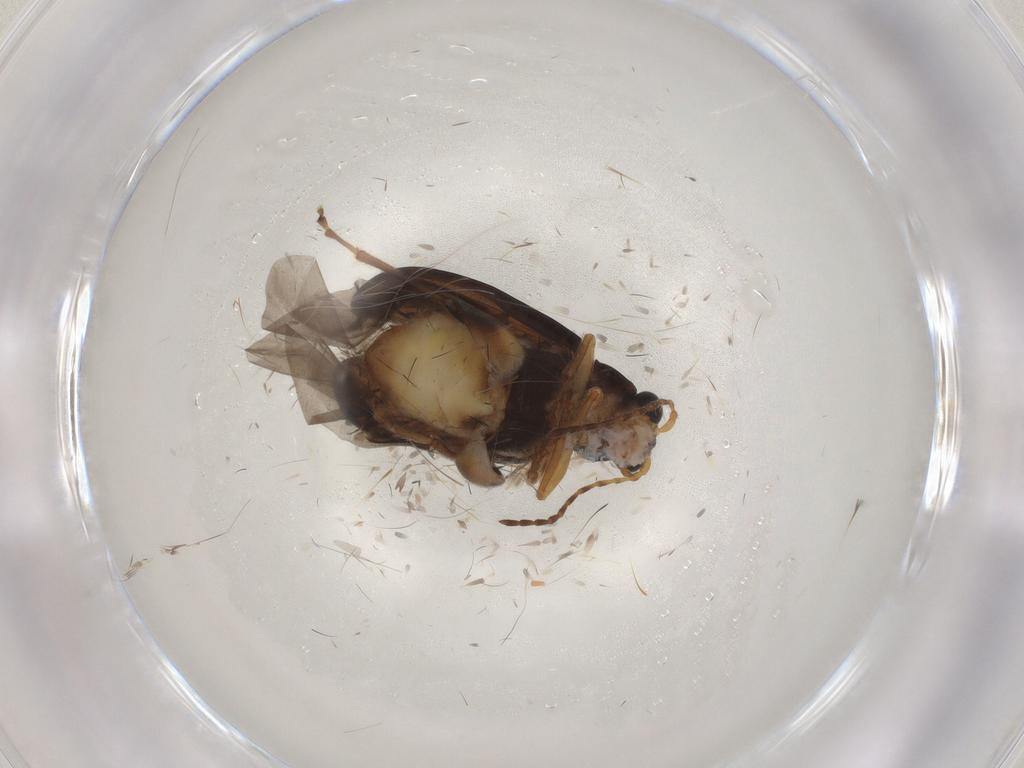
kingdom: Animalia
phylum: Arthropoda
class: Insecta
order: Coleoptera
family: Chrysomelidae
